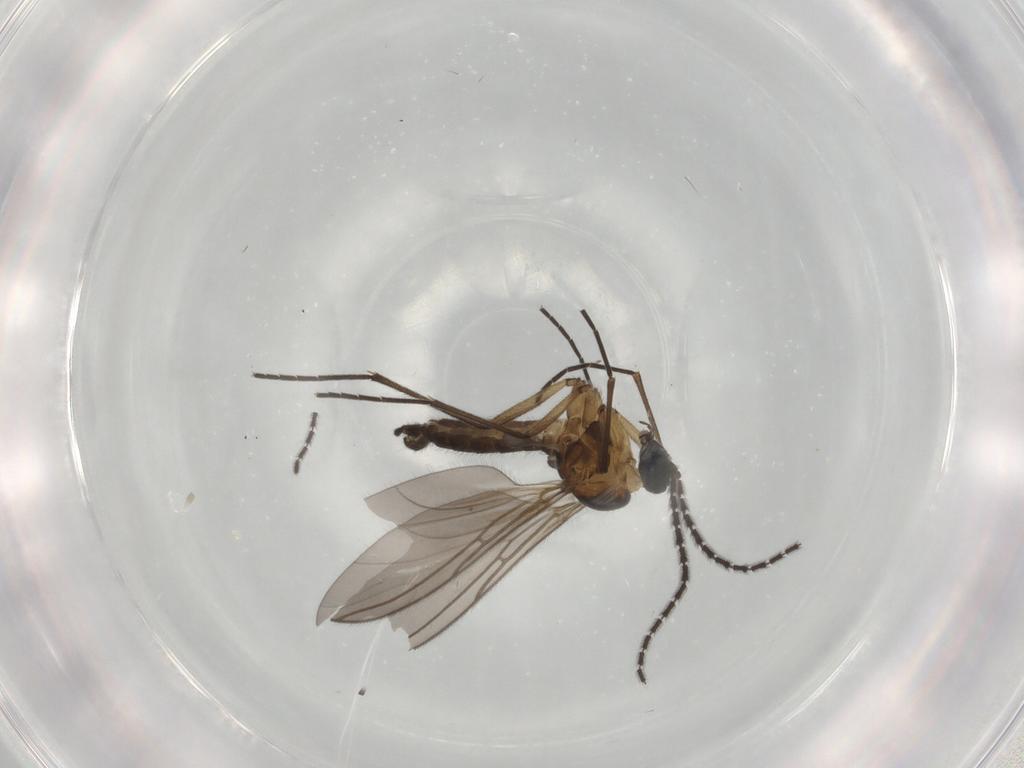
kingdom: Animalia
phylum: Arthropoda
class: Insecta
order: Diptera
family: Sciaridae
